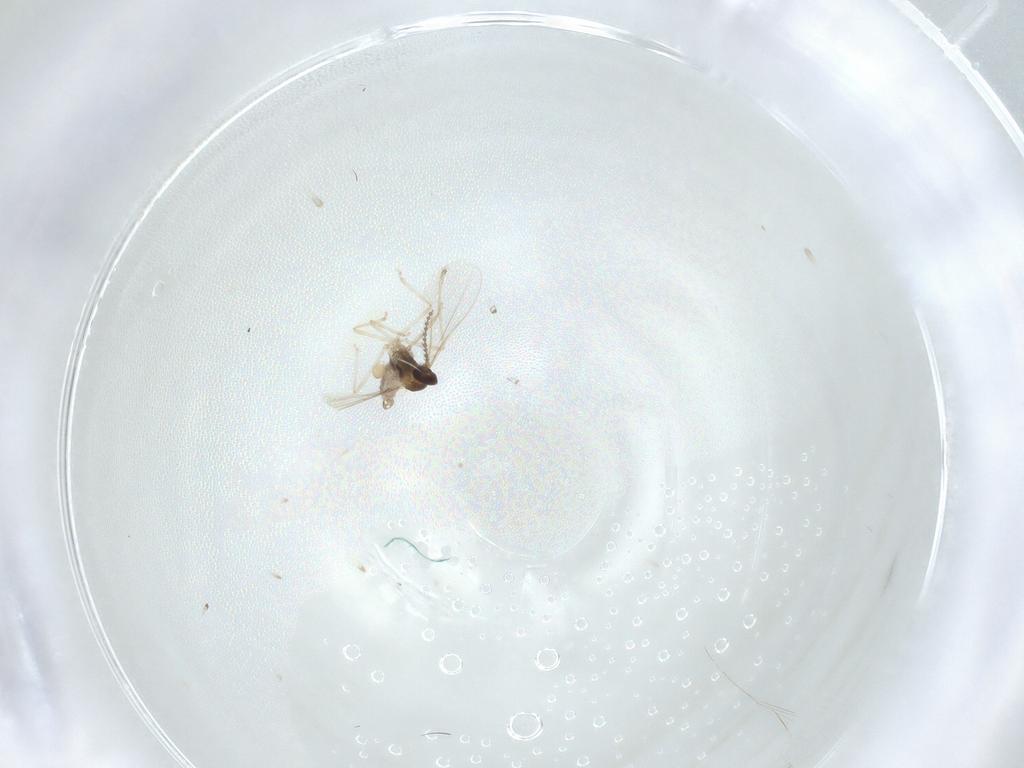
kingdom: Animalia
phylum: Arthropoda
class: Insecta
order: Diptera
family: Cecidomyiidae
